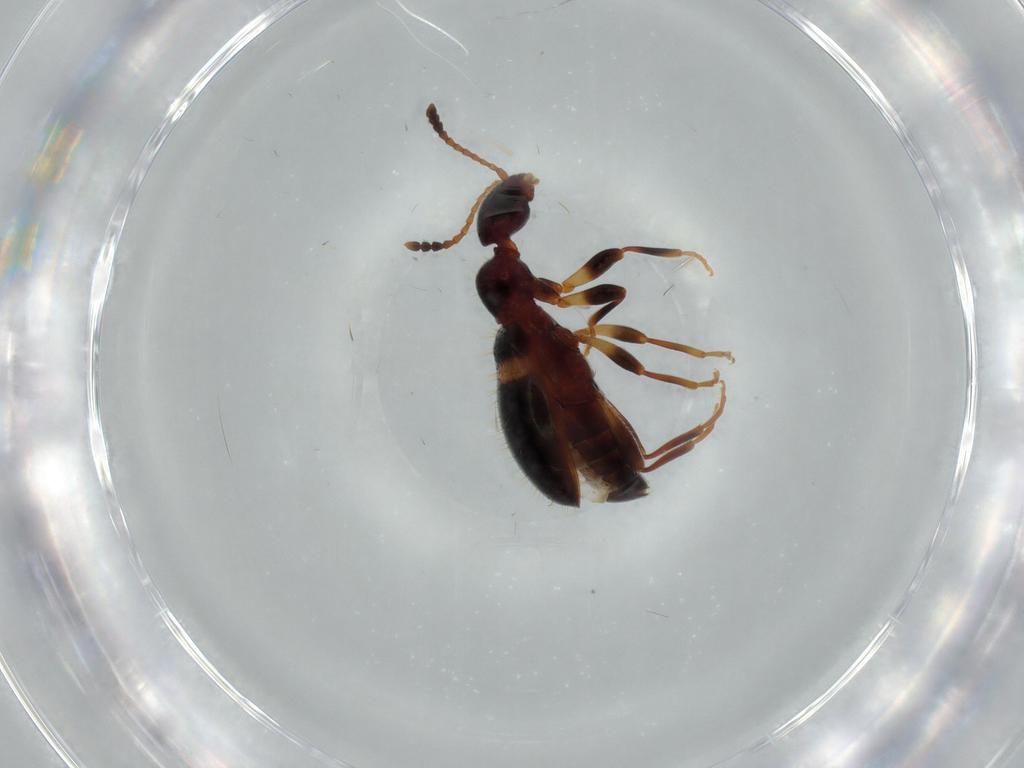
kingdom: Animalia
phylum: Arthropoda
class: Insecta
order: Coleoptera
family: Anthicidae
